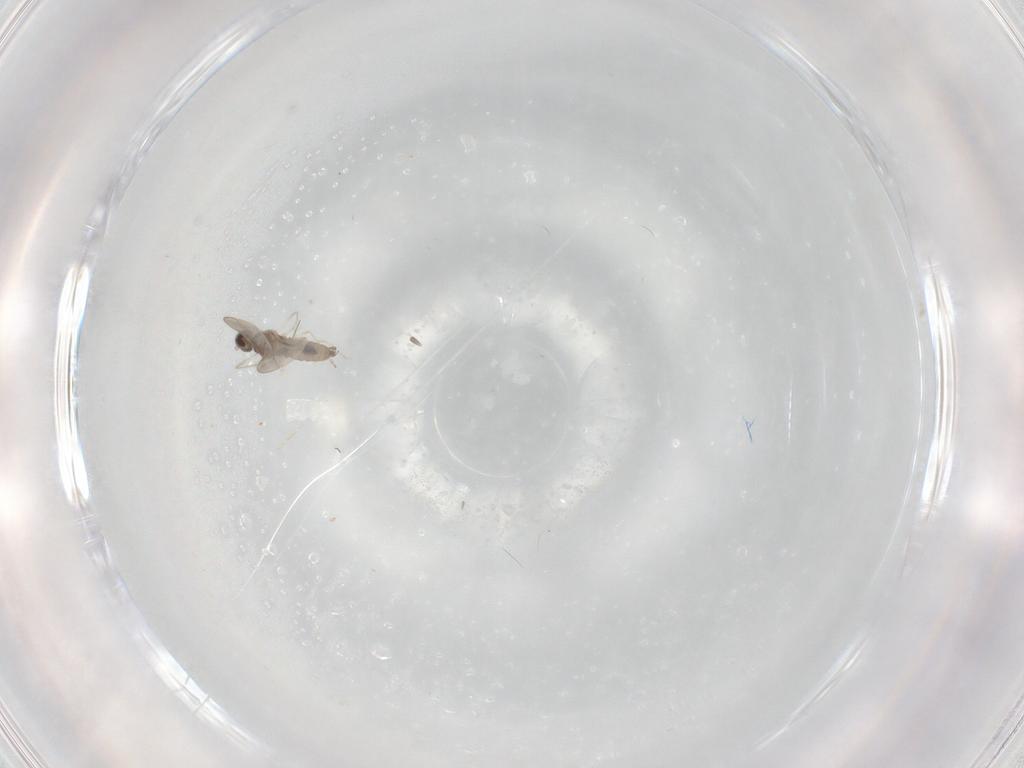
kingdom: Animalia
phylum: Arthropoda
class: Insecta
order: Diptera
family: Cecidomyiidae
